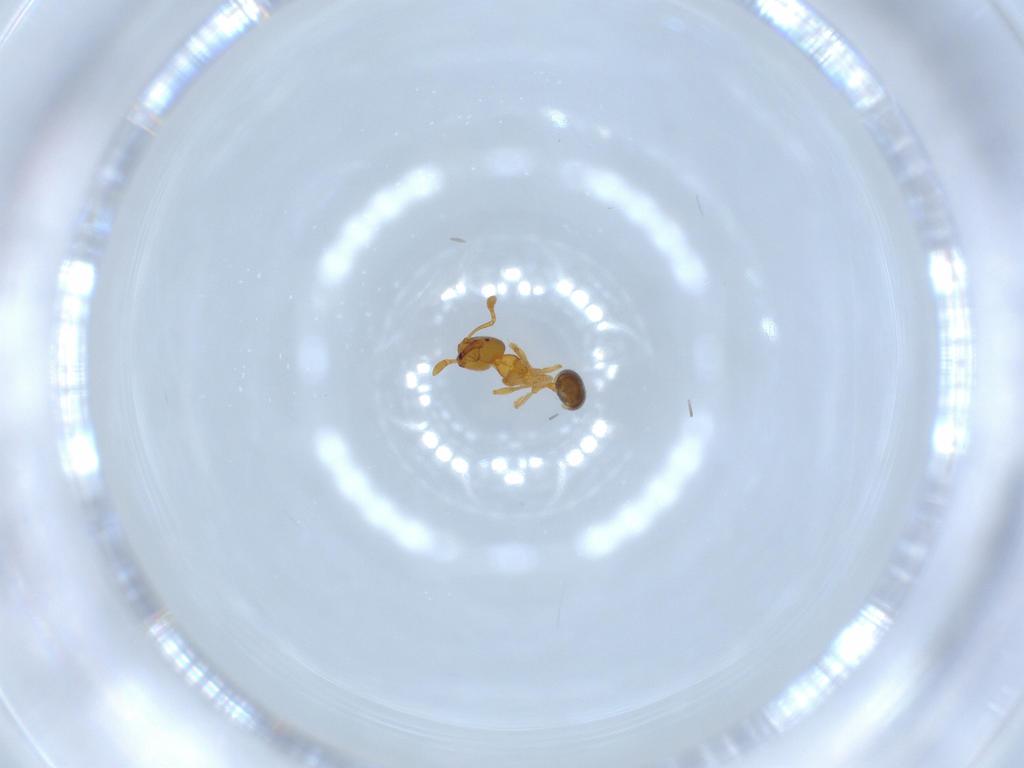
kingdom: Animalia
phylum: Arthropoda
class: Insecta
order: Hymenoptera
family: Formicidae
